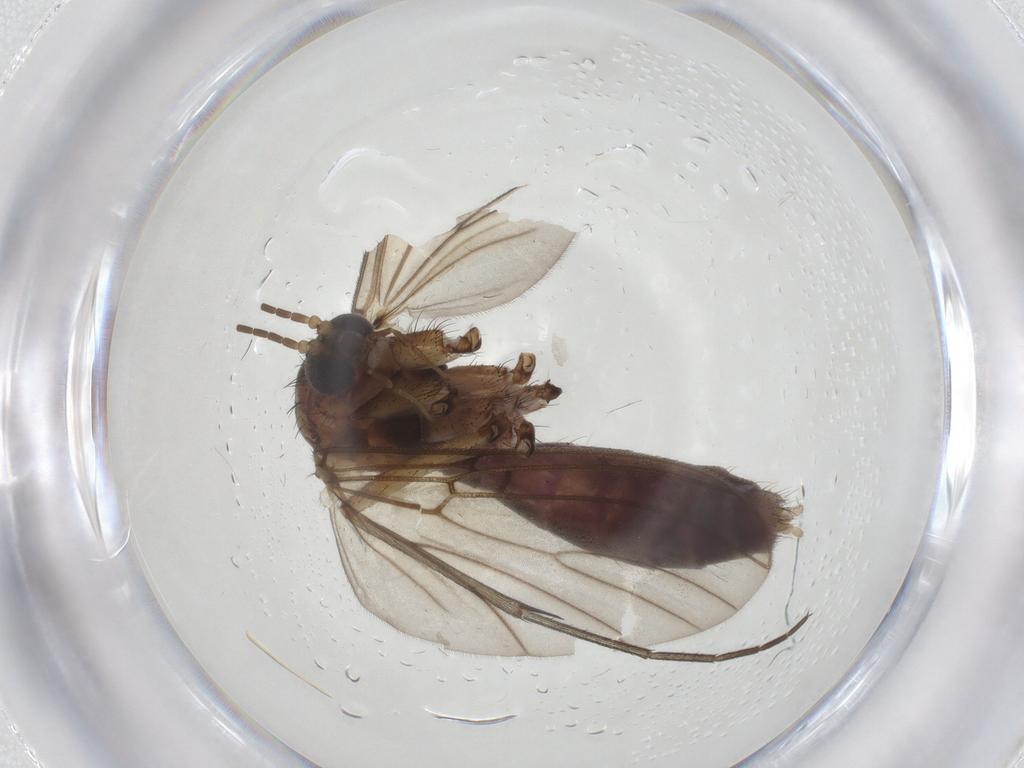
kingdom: Animalia
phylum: Arthropoda
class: Insecta
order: Diptera
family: Mycetophilidae
